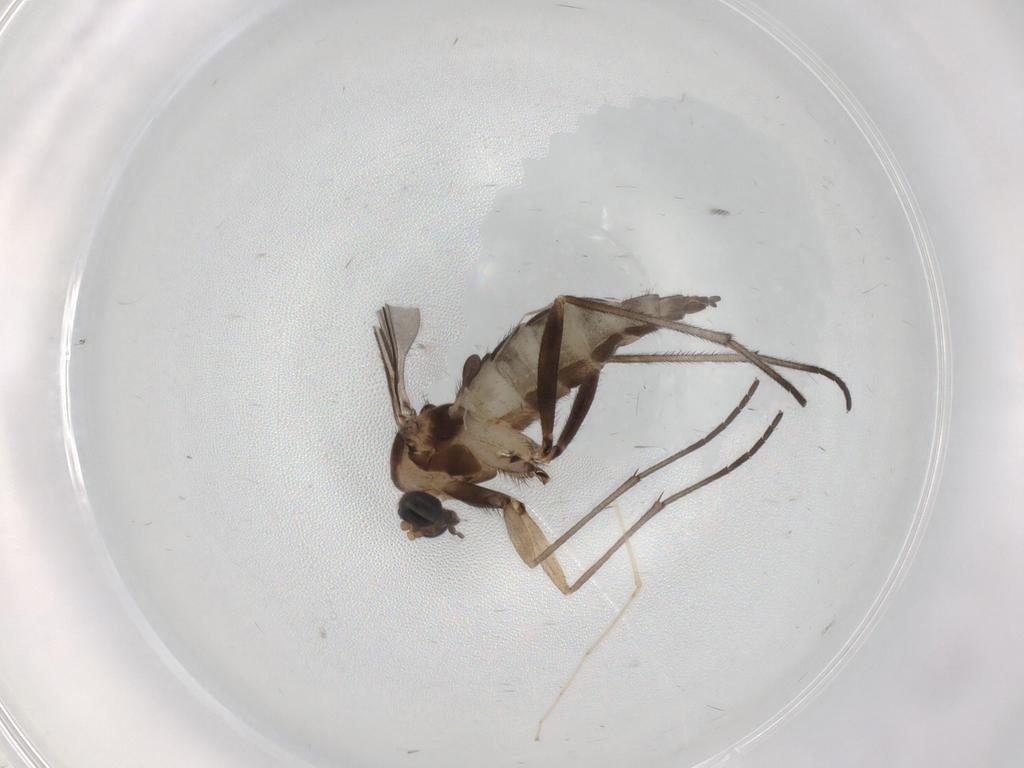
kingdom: Animalia
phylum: Arthropoda
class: Insecta
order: Diptera
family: Sciaridae
